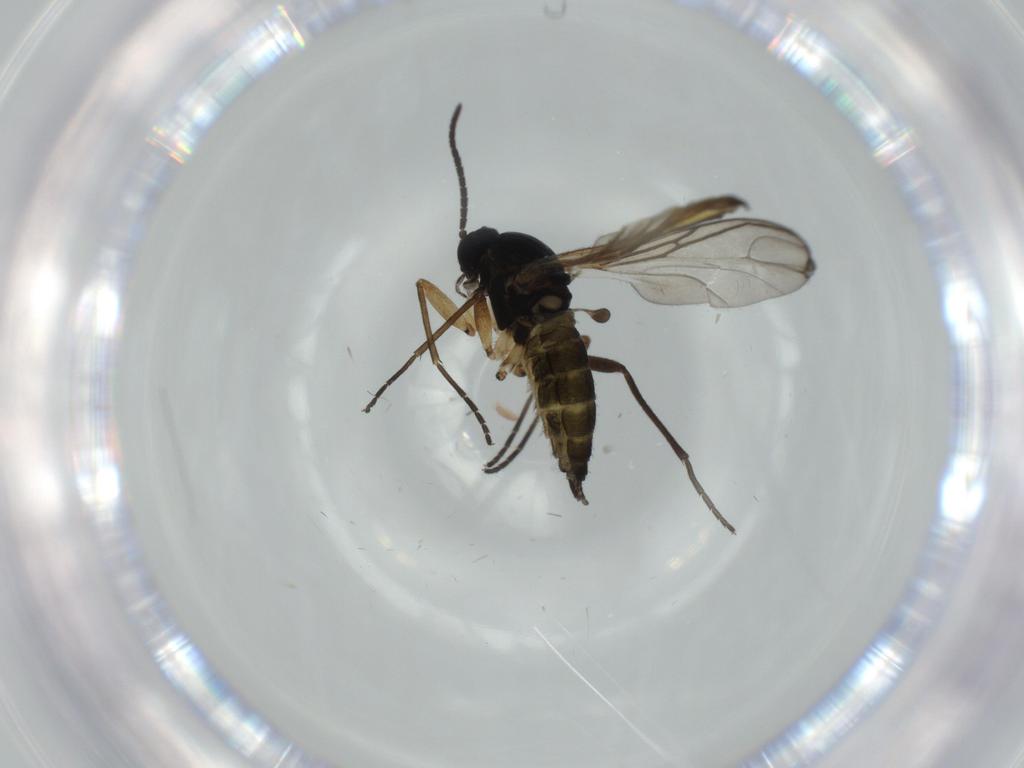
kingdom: Animalia
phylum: Arthropoda
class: Insecta
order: Diptera
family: Sciaridae
